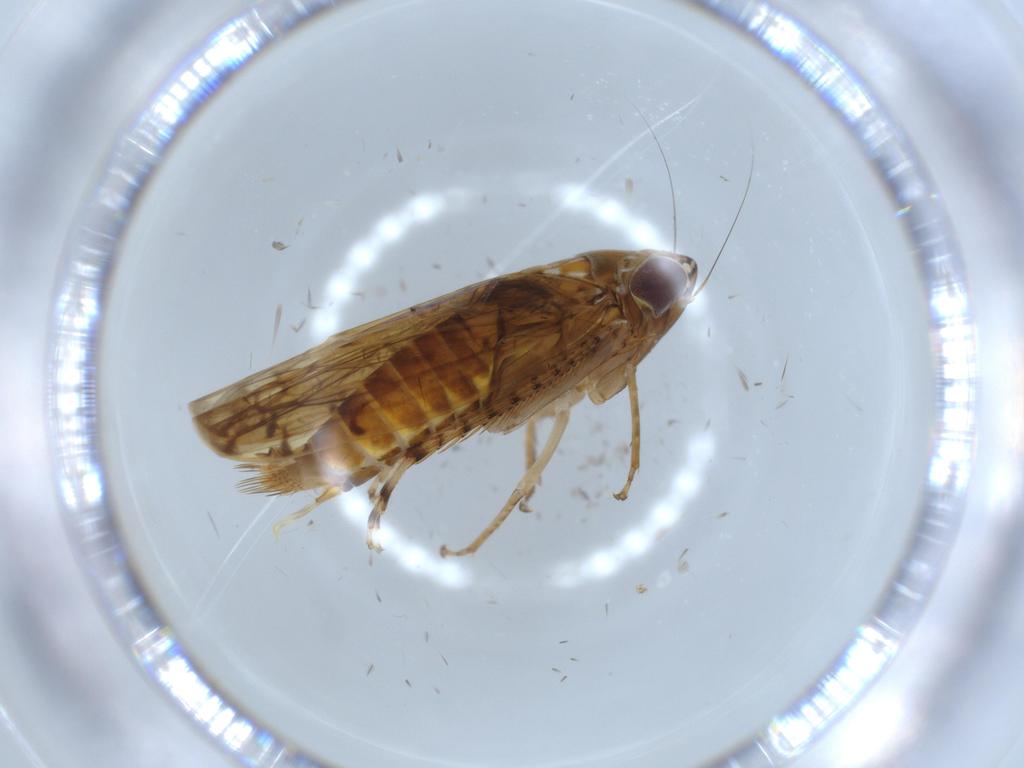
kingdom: Animalia
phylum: Arthropoda
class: Insecta
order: Hemiptera
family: Cicadellidae
